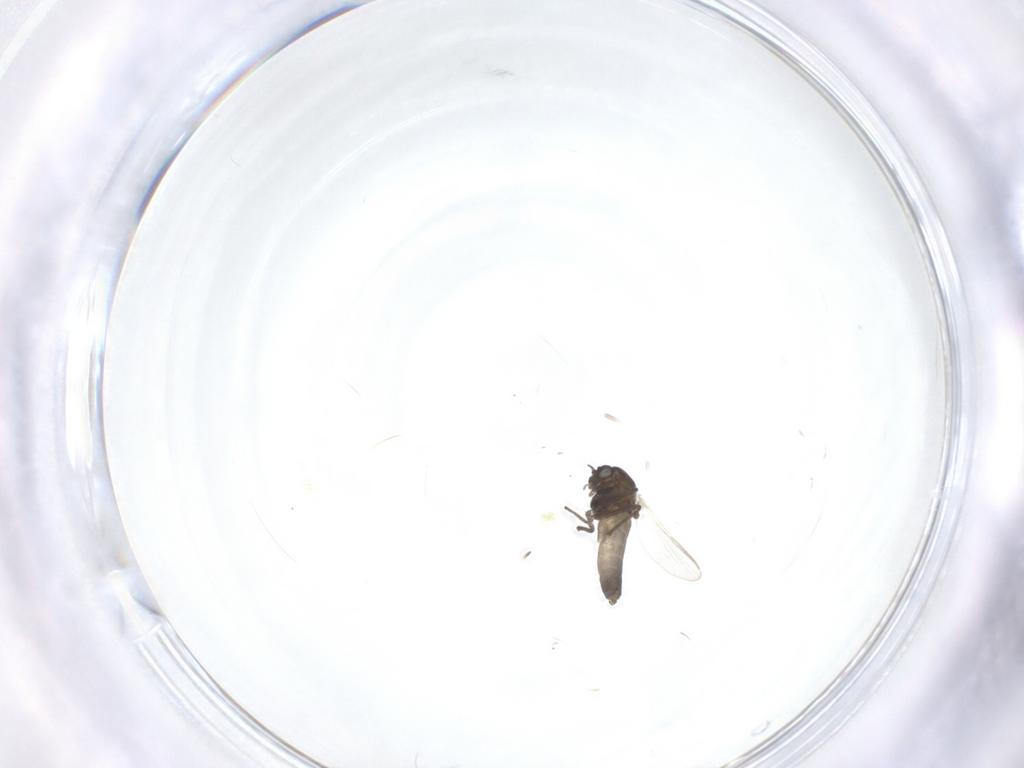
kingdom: Animalia
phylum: Arthropoda
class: Insecta
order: Diptera
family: Chironomidae
